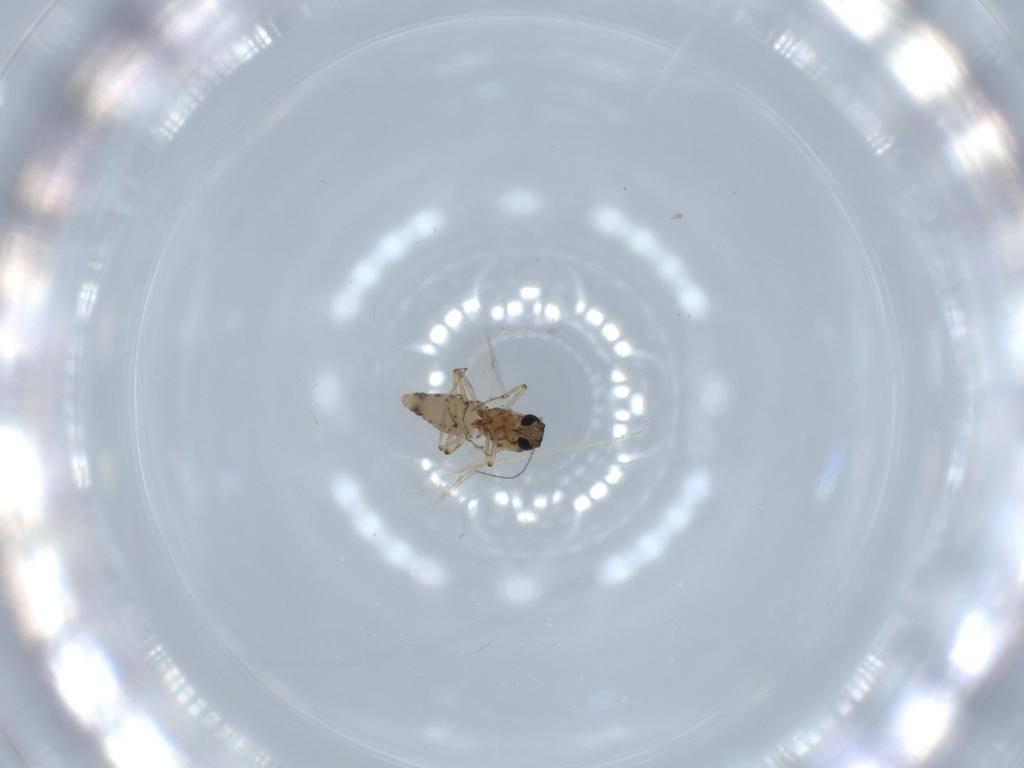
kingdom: Animalia
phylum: Arthropoda
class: Insecta
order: Diptera
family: Ceratopogonidae
